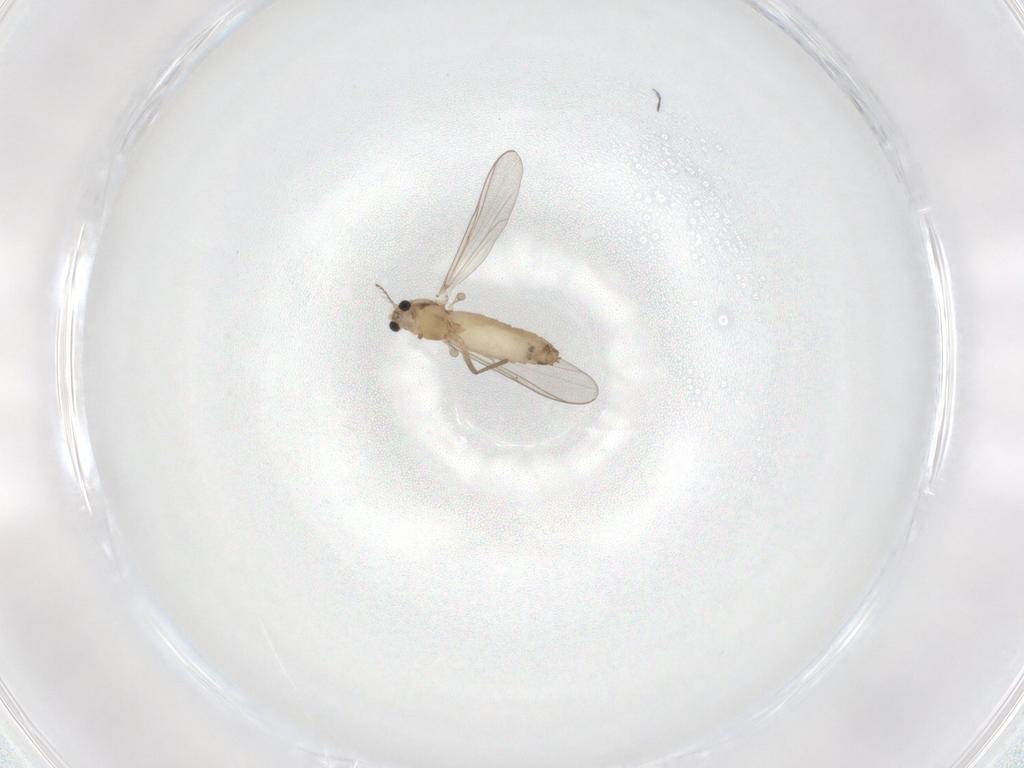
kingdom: Animalia
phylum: Arthropoda
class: Insecta
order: Diptera
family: Chironomidae
